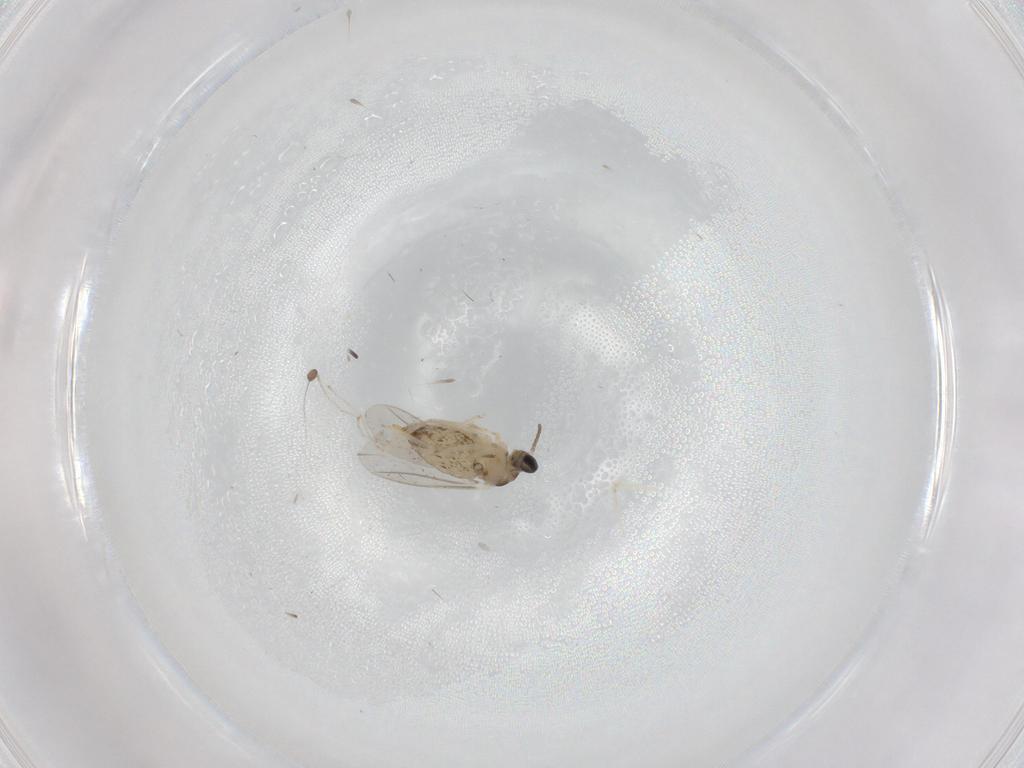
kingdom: Animalia
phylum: Arthropoda
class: Insecta
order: Diptera
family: Cecidomyiidae
